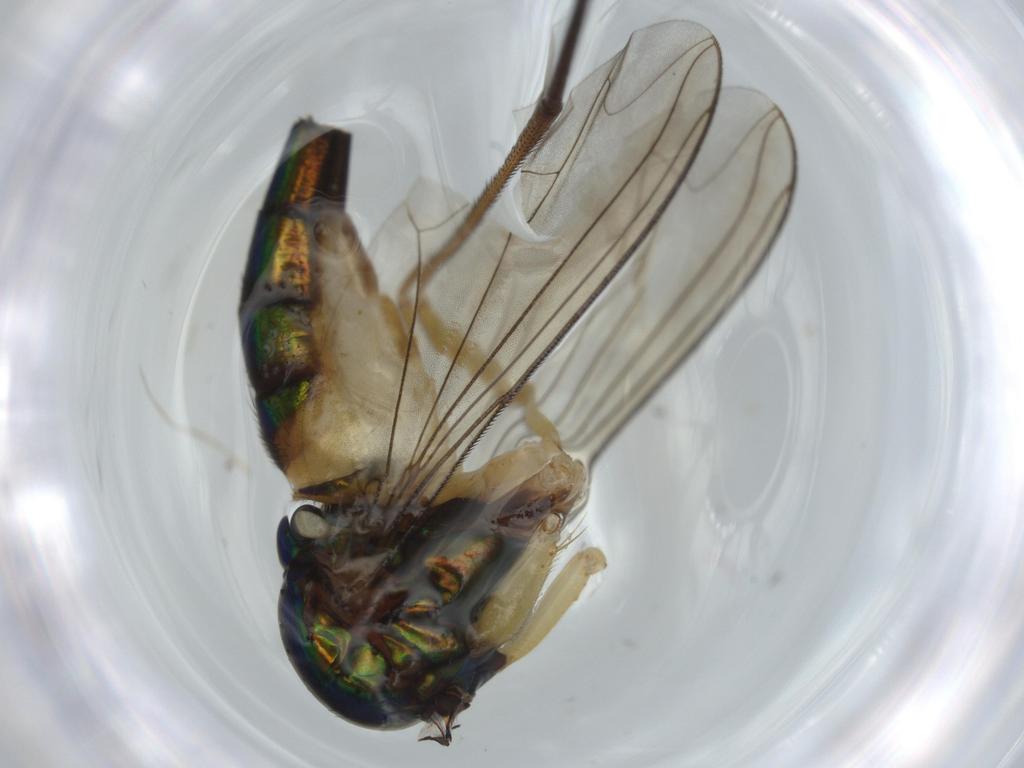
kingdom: Animalia
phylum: Arthropoda
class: Insecta
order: Diptera
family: Dolichopodidae
